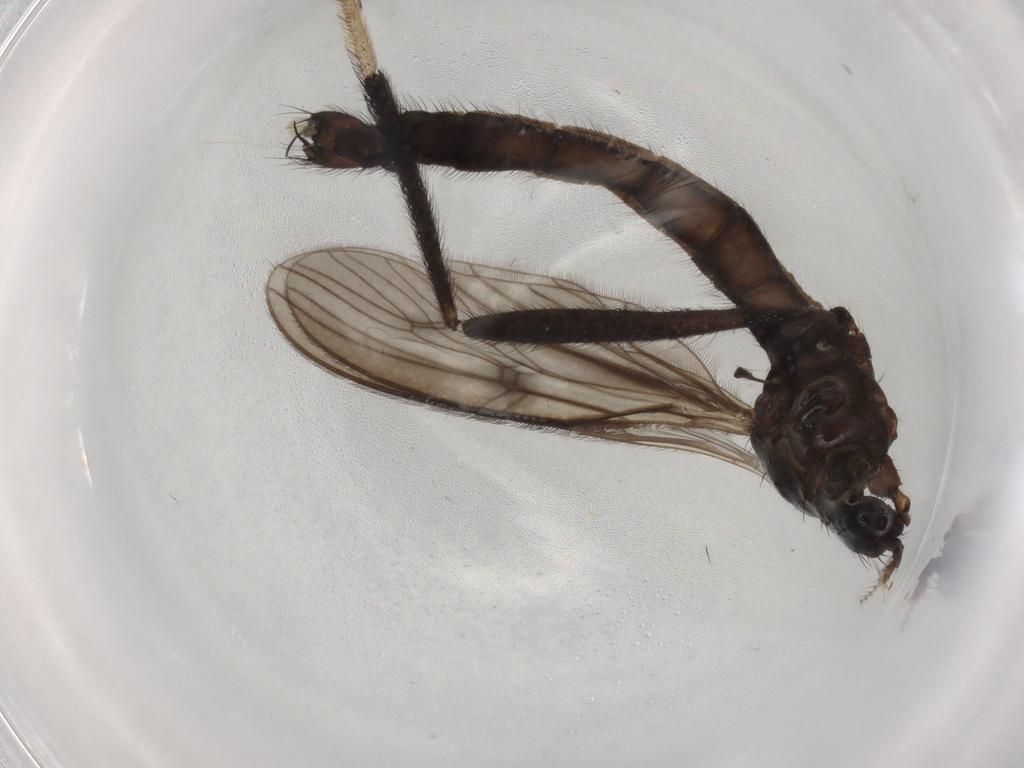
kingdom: Animalia
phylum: Arthropoda
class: Insecta
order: Diptera
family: Limoniidae
